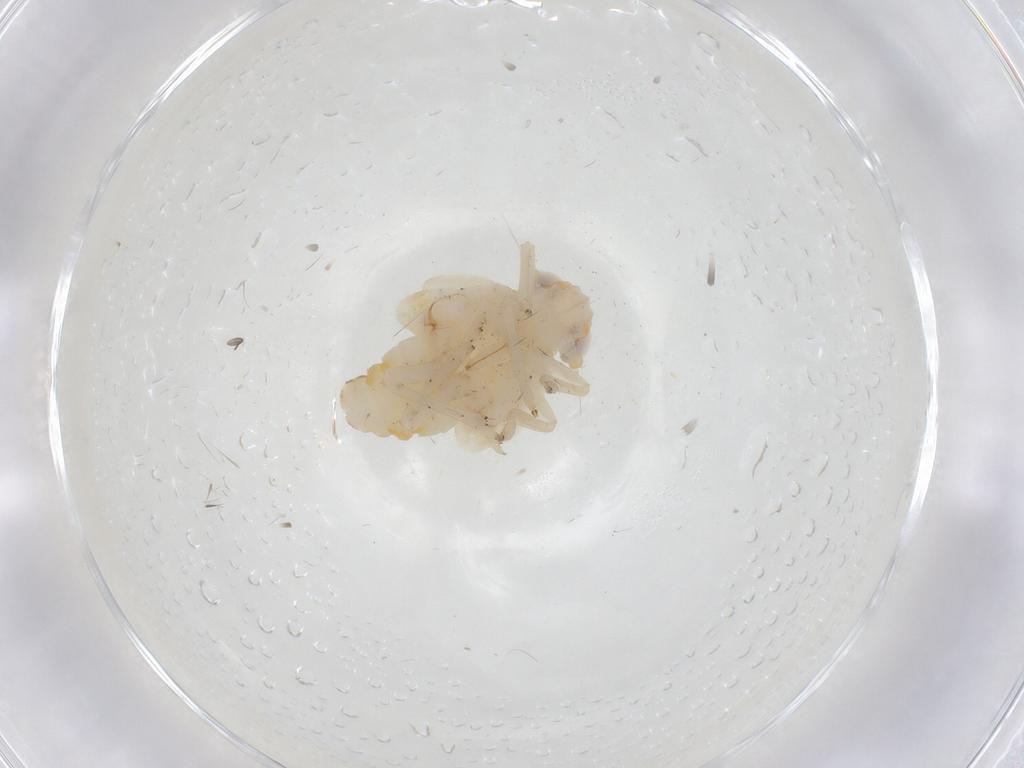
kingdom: Animalia
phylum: Arthropoda
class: Insecta
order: Hemiptera
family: Nogodinidae
